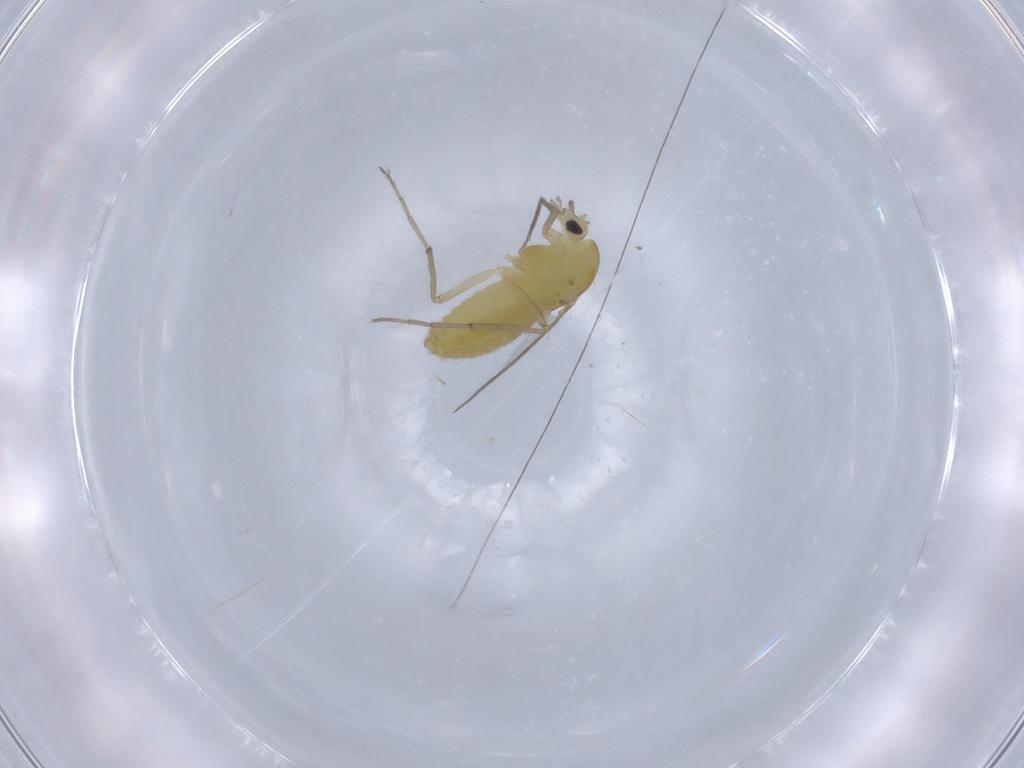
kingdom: Animalia
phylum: Arthropoda
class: Insecta
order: Diptera
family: Chironomidae
